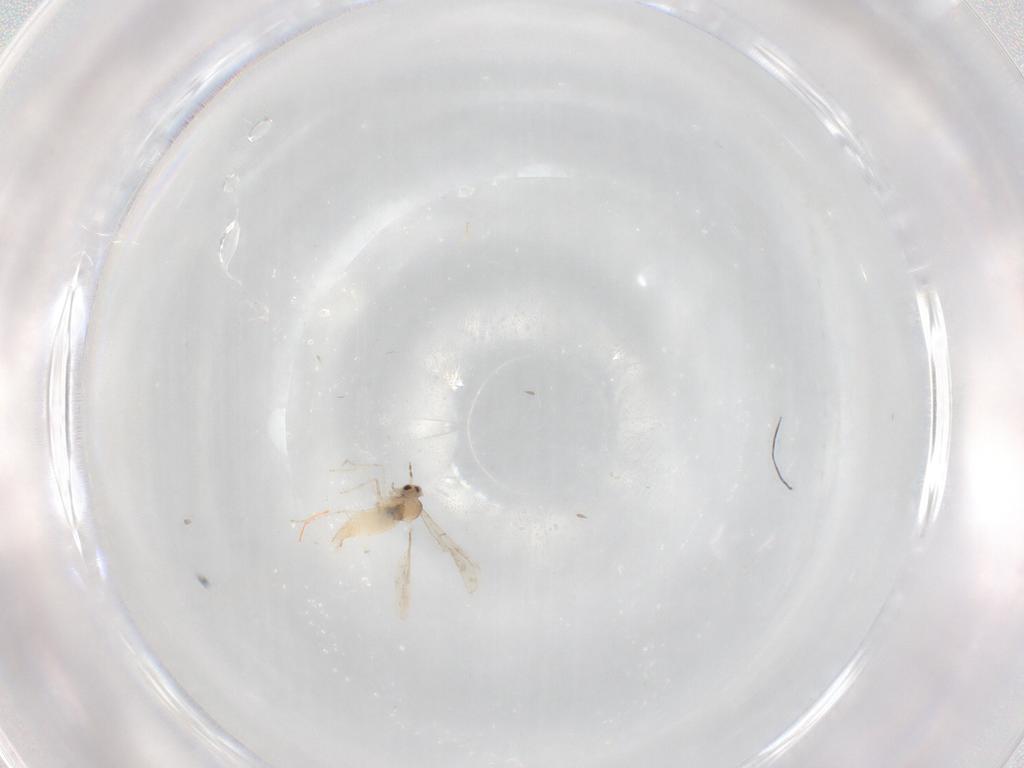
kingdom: Animalia
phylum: Arthropoda
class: Insecta
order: Diptera
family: Cecidomyiidae
